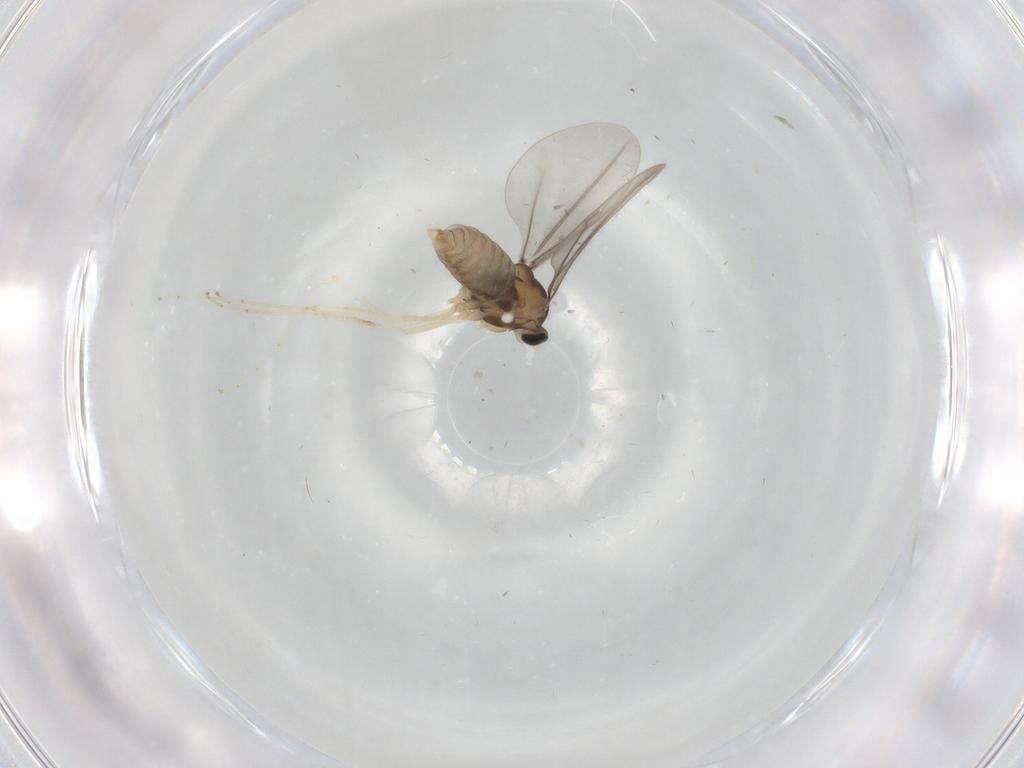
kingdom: Animalia
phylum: Arthropoda
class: Insecta
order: Diptera
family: Cecidomyiidae
